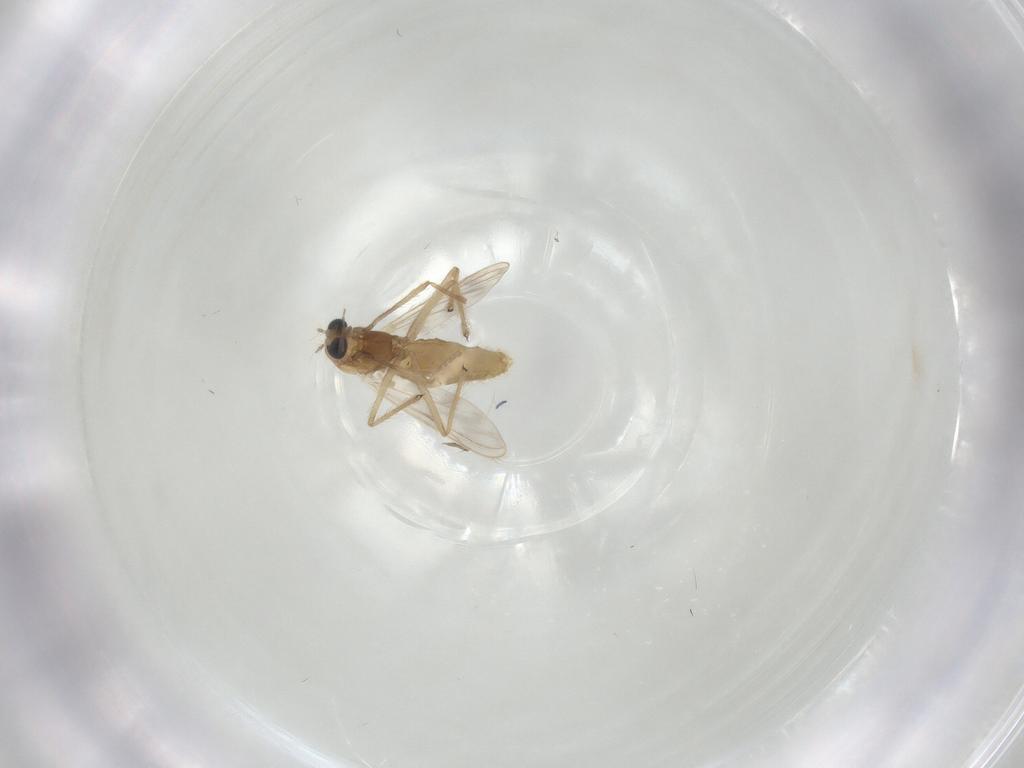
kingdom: Animalia
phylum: Arthropoda
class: Insecta
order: Diptera
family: Chironomidae
